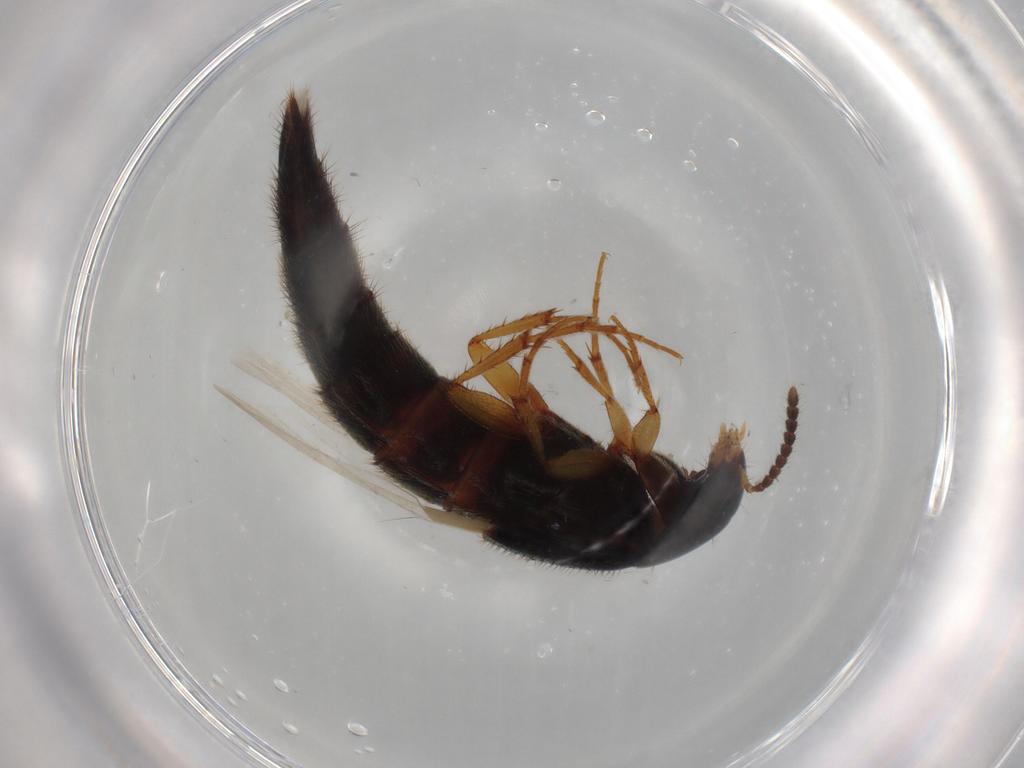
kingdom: Animalia
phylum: Arthropoda
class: Insecta
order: Coleoptera
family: Staphylinidae
